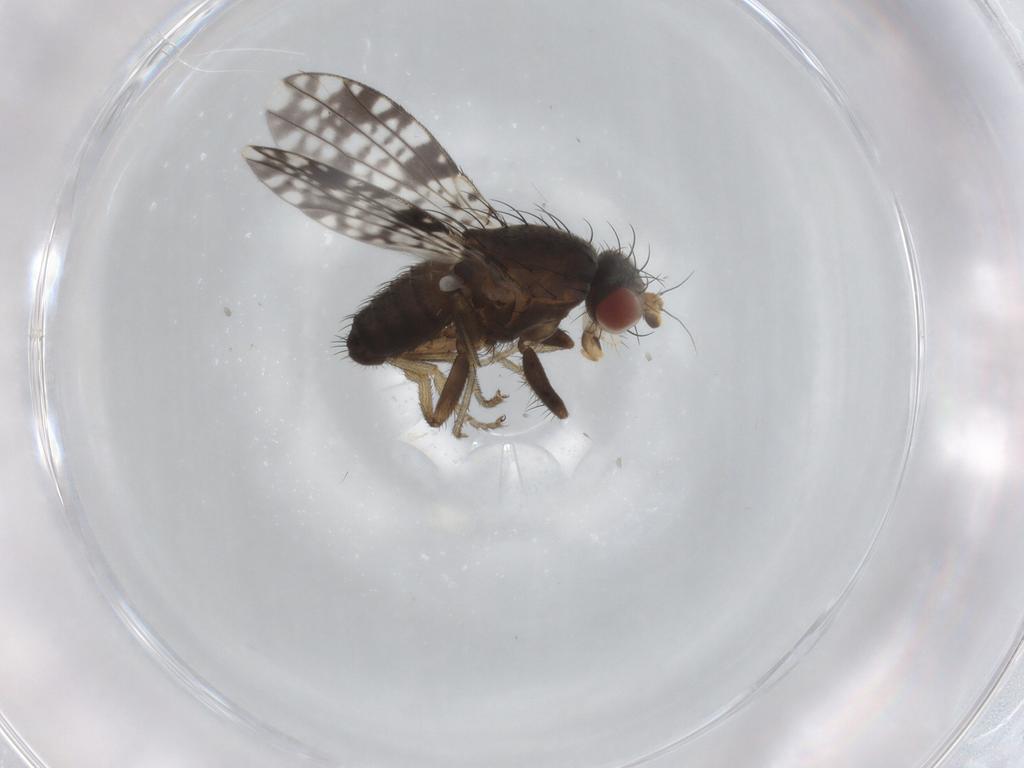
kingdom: Animalia
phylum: Arthropoda
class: Insecta
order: Diptera
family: Tephritidae
